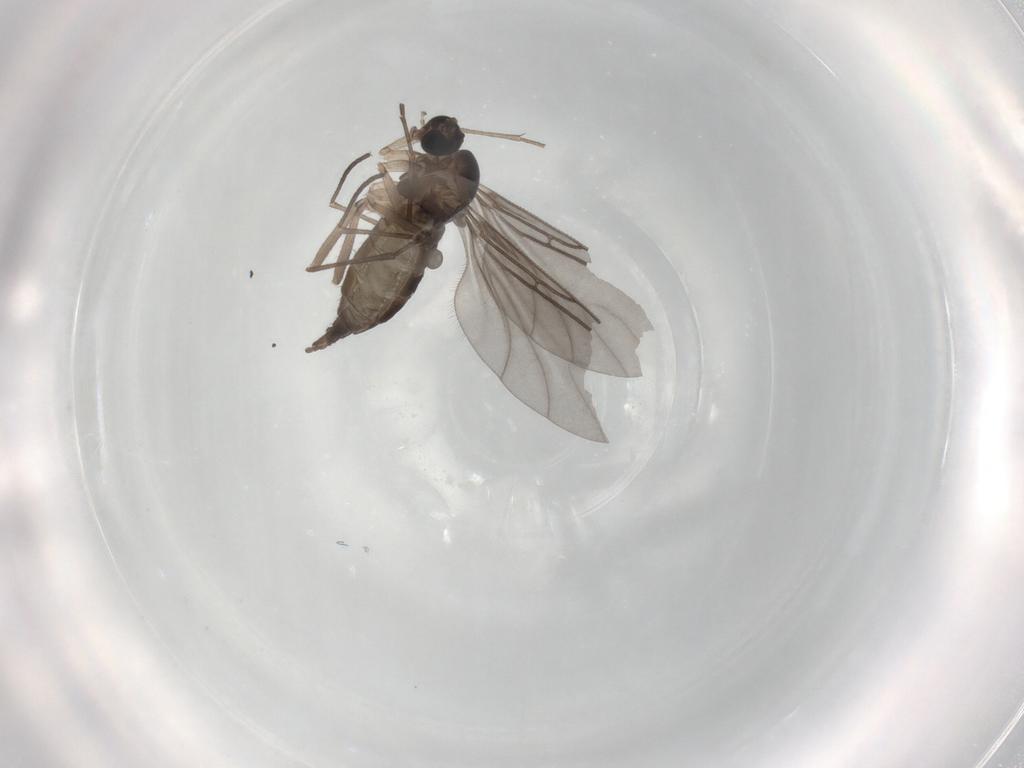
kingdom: Animalia
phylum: Arthropoda
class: Insecta
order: Diptera
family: Sciaridae
